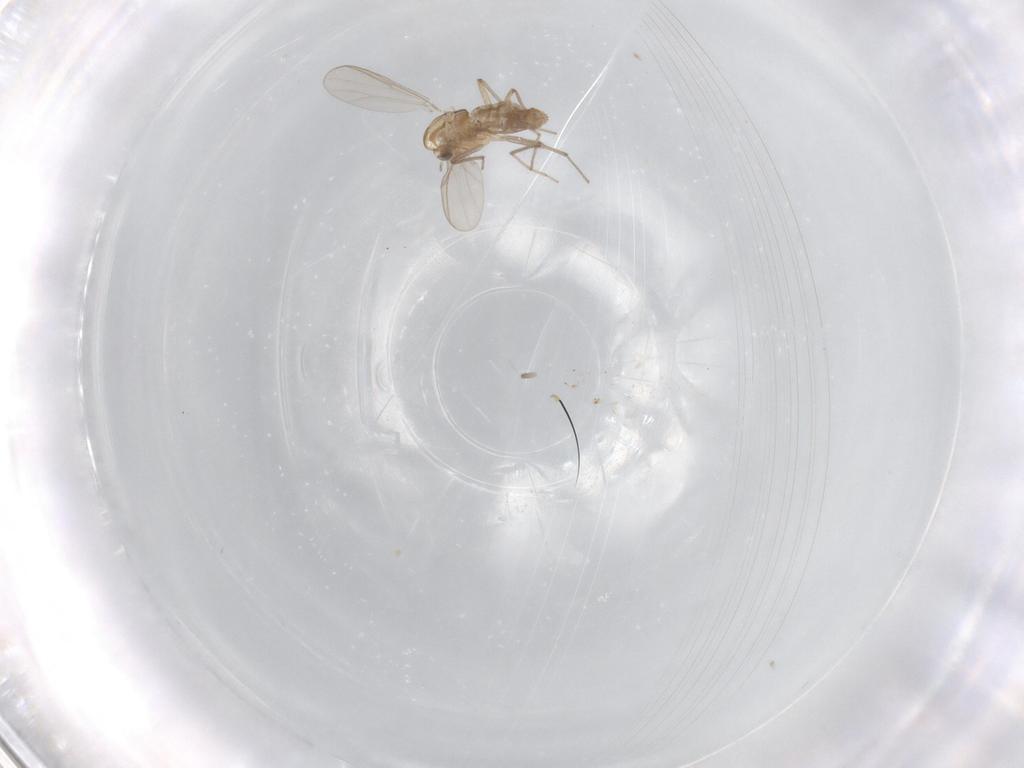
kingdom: Animalia
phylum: Arthropoda
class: Insecta
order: Diptera
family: Chironomidae
